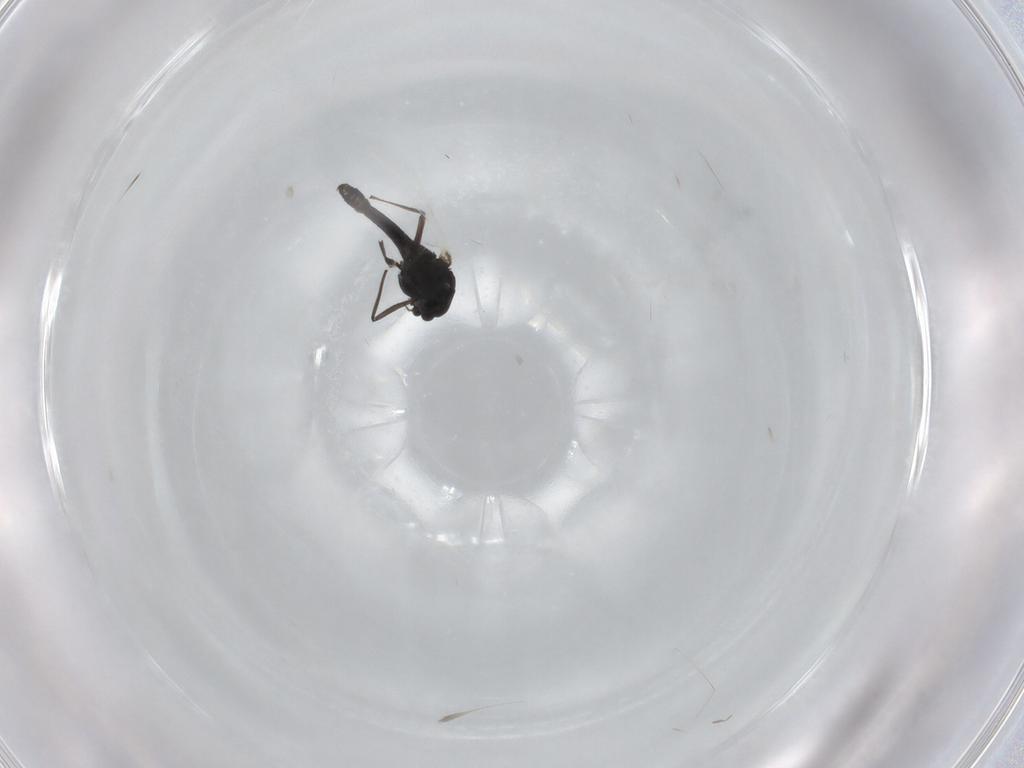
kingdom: Animalia
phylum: Arthropoda
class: Insecta
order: Diptera
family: Chironomidae
